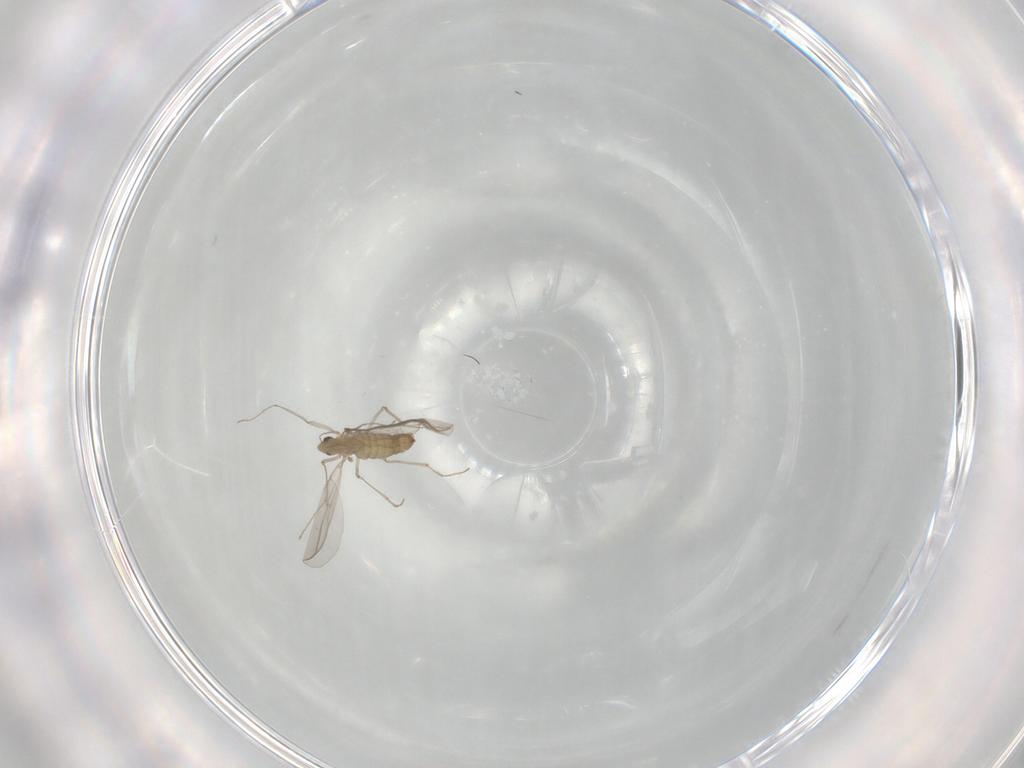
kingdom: Animalia
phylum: Arthropoda
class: Insecta
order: Diptera
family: Chironomidae
